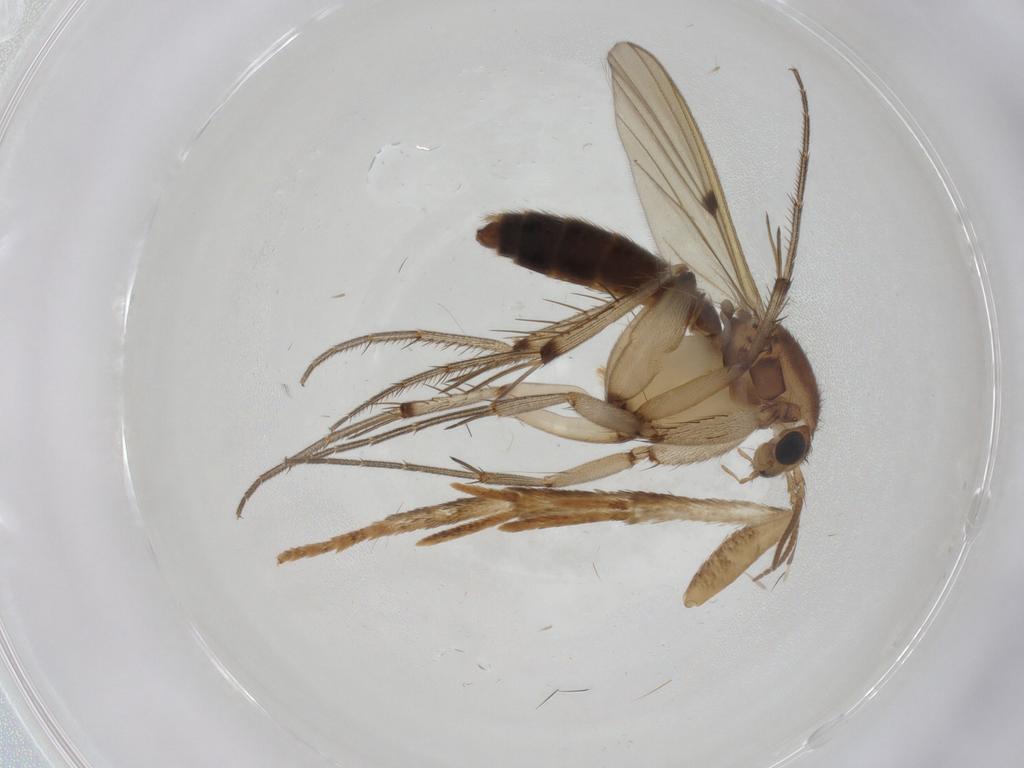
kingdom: Animalia
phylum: Arthropoda
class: Insecta
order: Diptera
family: Mycetophilidae
